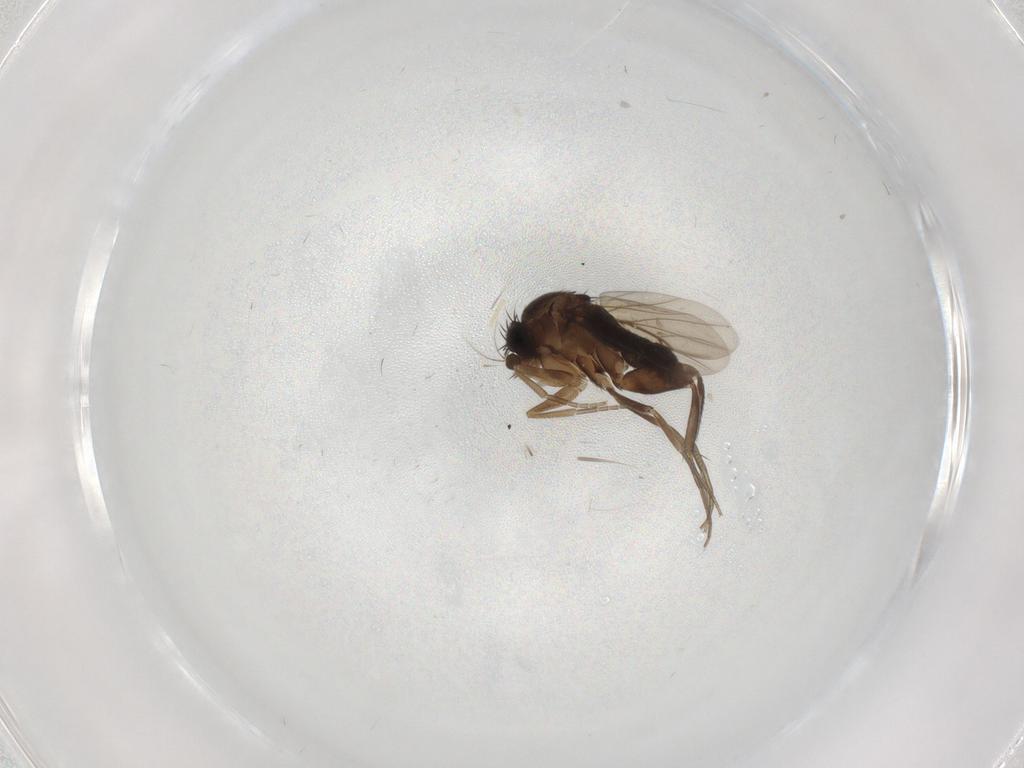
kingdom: Animalia
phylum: Arthropoda
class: Insecta
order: Diptera
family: Phoridae
